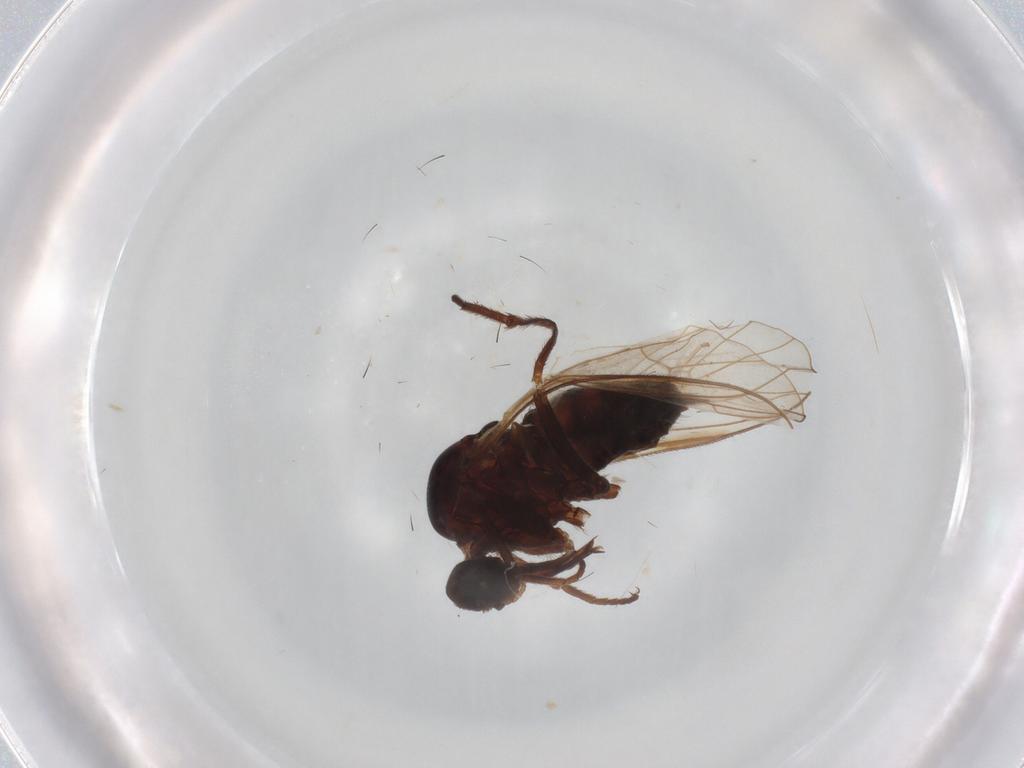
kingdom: Animalia
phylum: Arthropoda
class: Insecta
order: Diptera
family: Empididae
